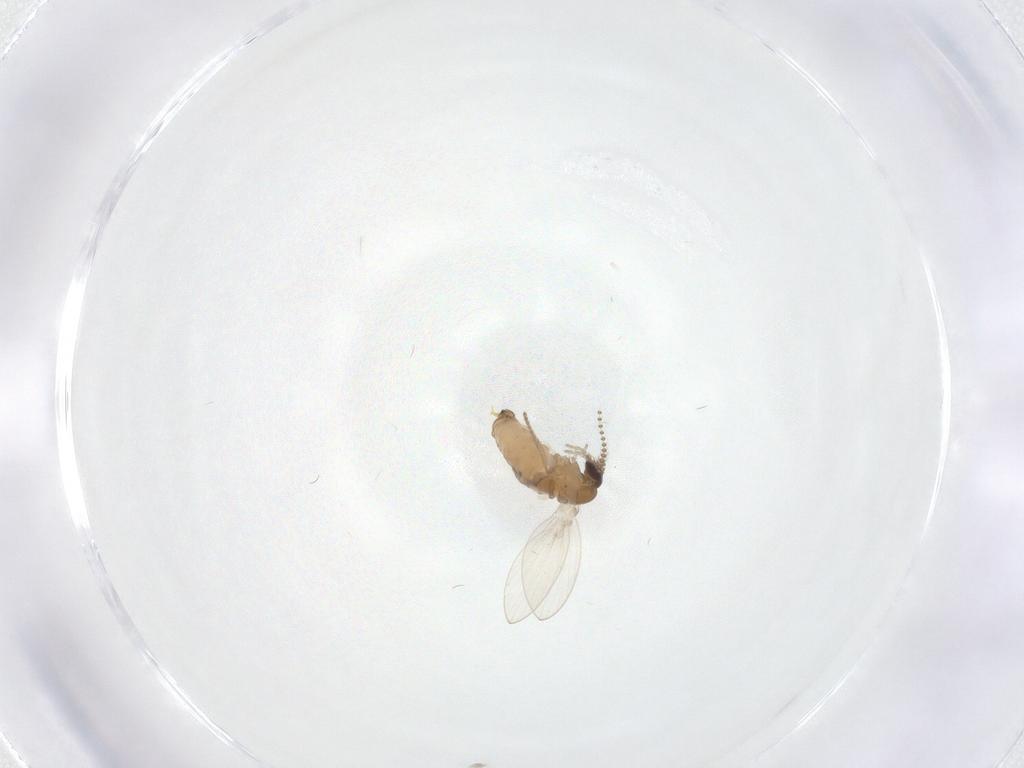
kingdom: Animalia
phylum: Arthropoda
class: Insecta
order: Diptera
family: Psychodidae
